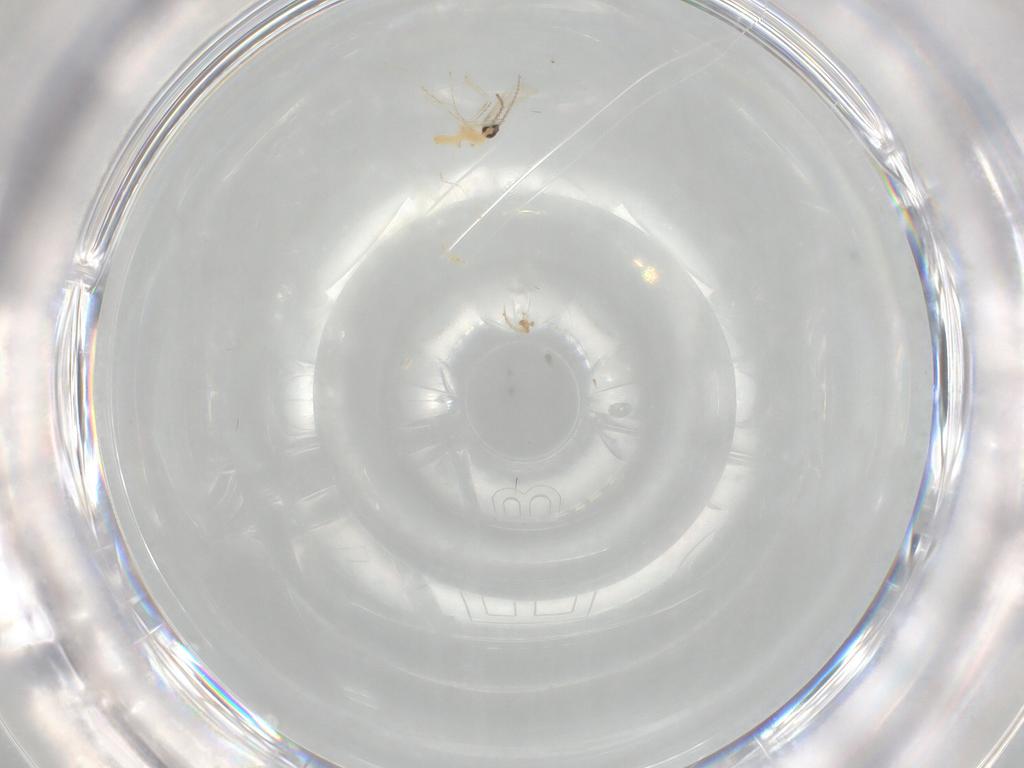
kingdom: Animalia
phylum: Arthropoda
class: Insecta
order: Diptera
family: Cecidomyiidae
